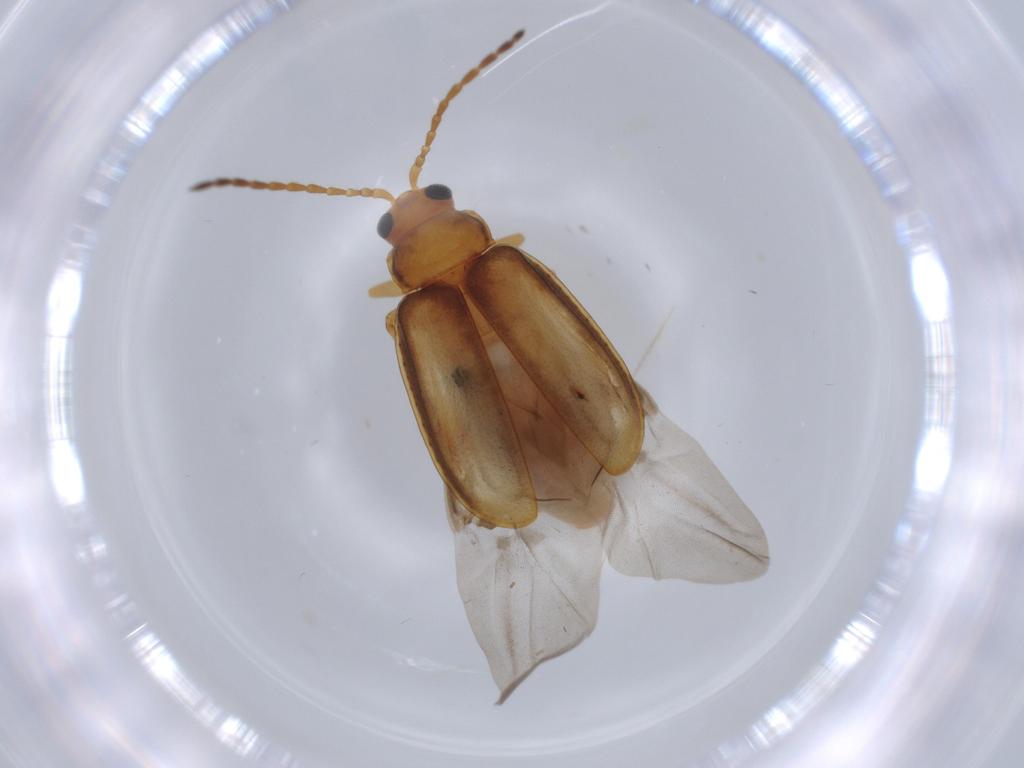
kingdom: Animalia
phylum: Arthropoda
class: Insecta
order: Coleoptera
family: Chrysomelidae
